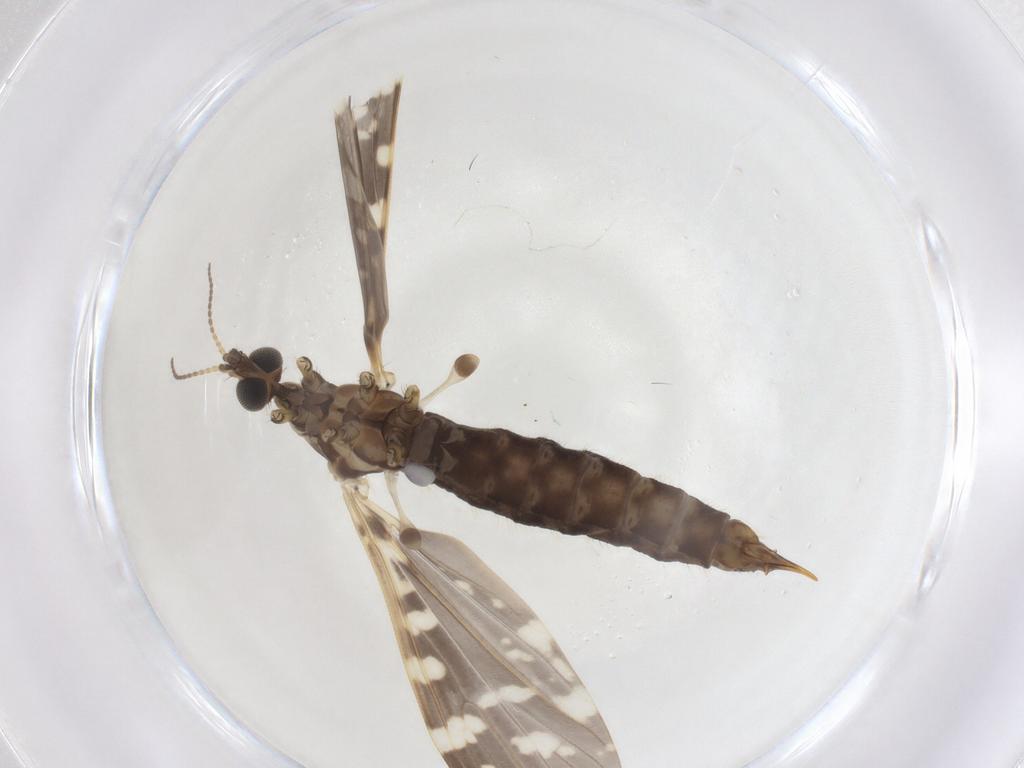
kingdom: Animalia
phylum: Arthropoda
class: Insecta
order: Diptera
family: Limoniidae
